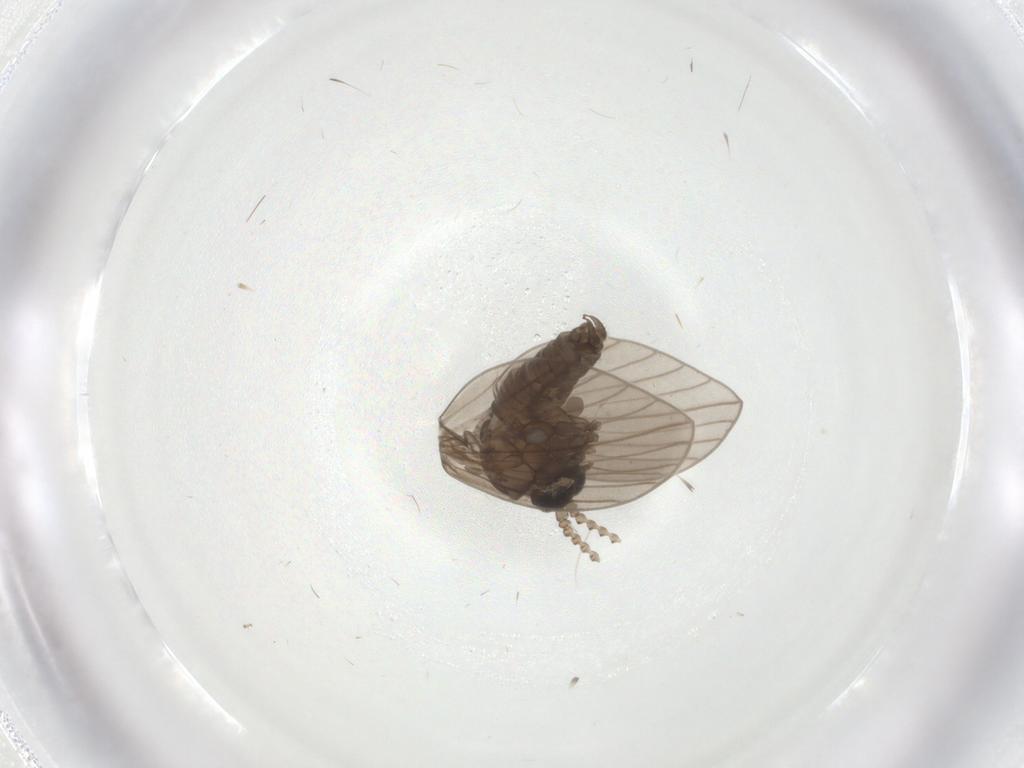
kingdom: Animalia
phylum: Arthropoda
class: Insecta
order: Diptera
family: Psychodidae
